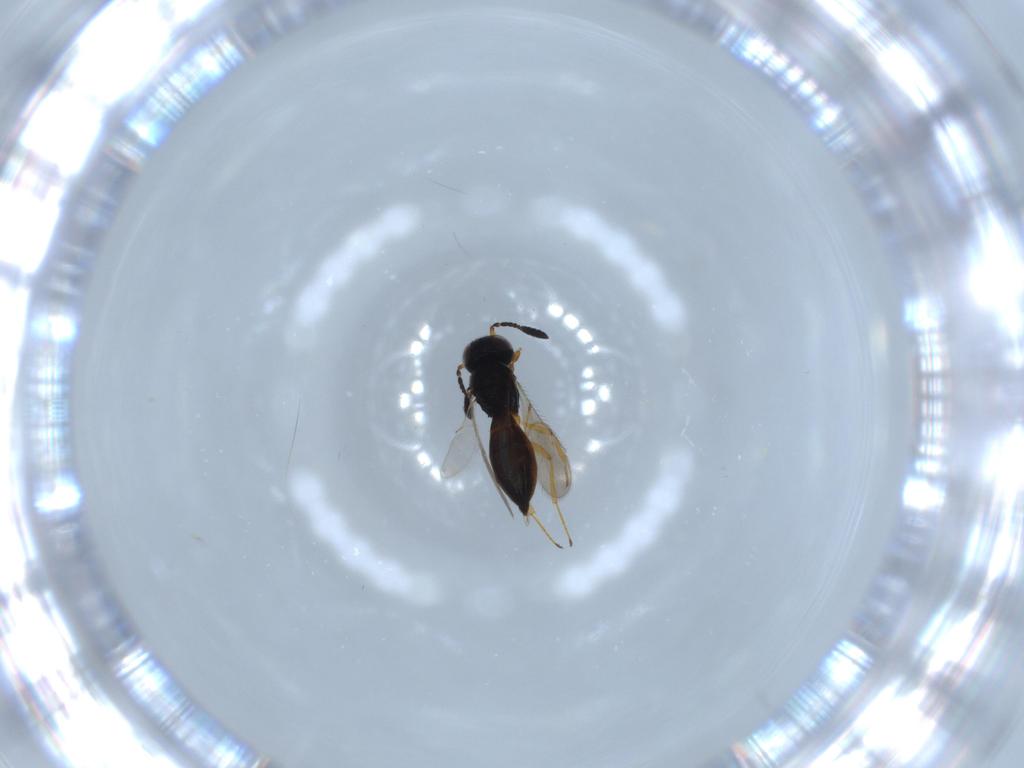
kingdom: Animalia
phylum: Arthropoda
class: Insecta
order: Hymenoptera
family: Scelionidae
